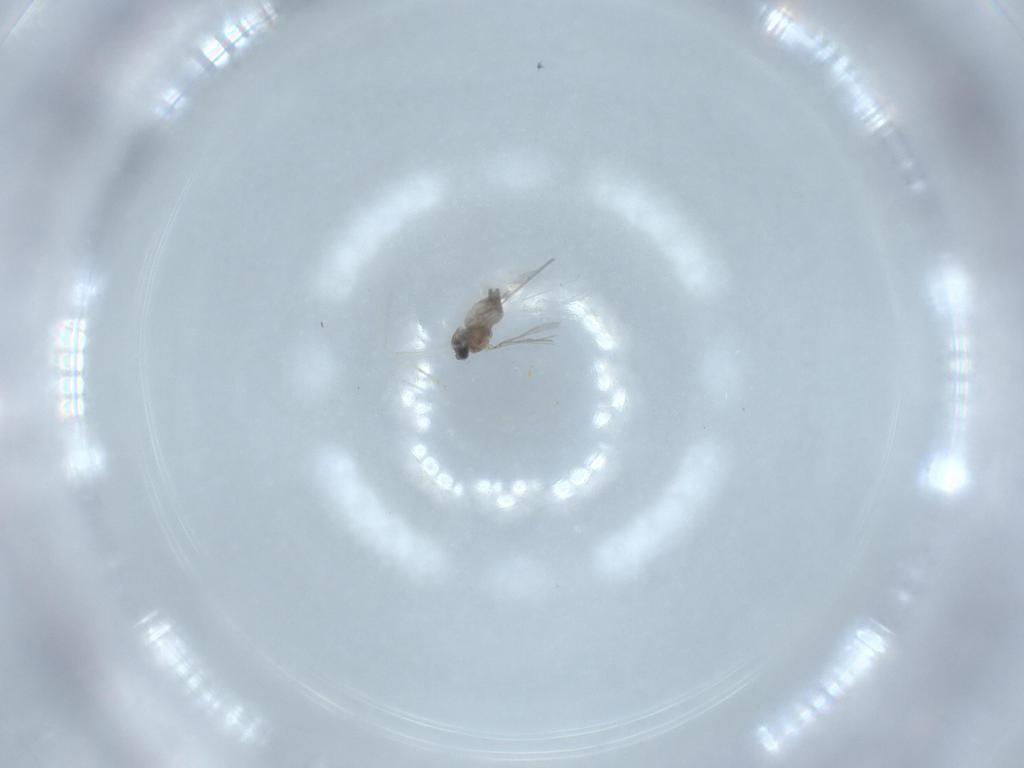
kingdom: Animalia
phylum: Arthropoda
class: Insecta
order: Diptera
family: Cecidomyiidae
